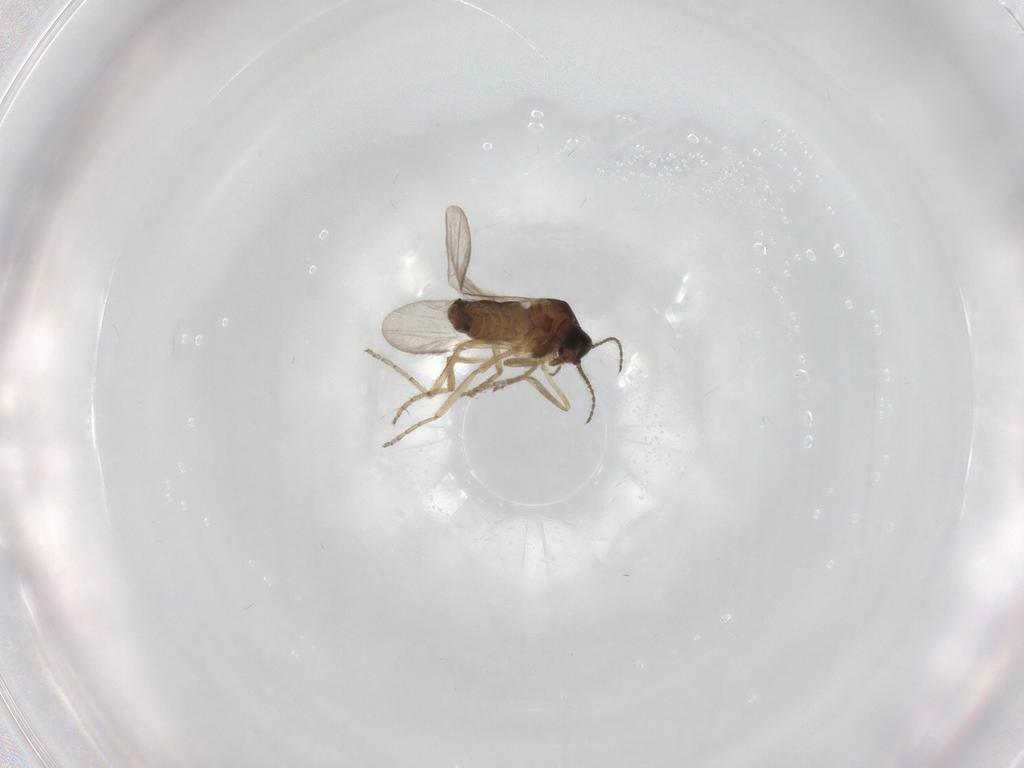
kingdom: Animalia
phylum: Arthropoda
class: Insecta
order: Diptera
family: Ceratopogonidae
